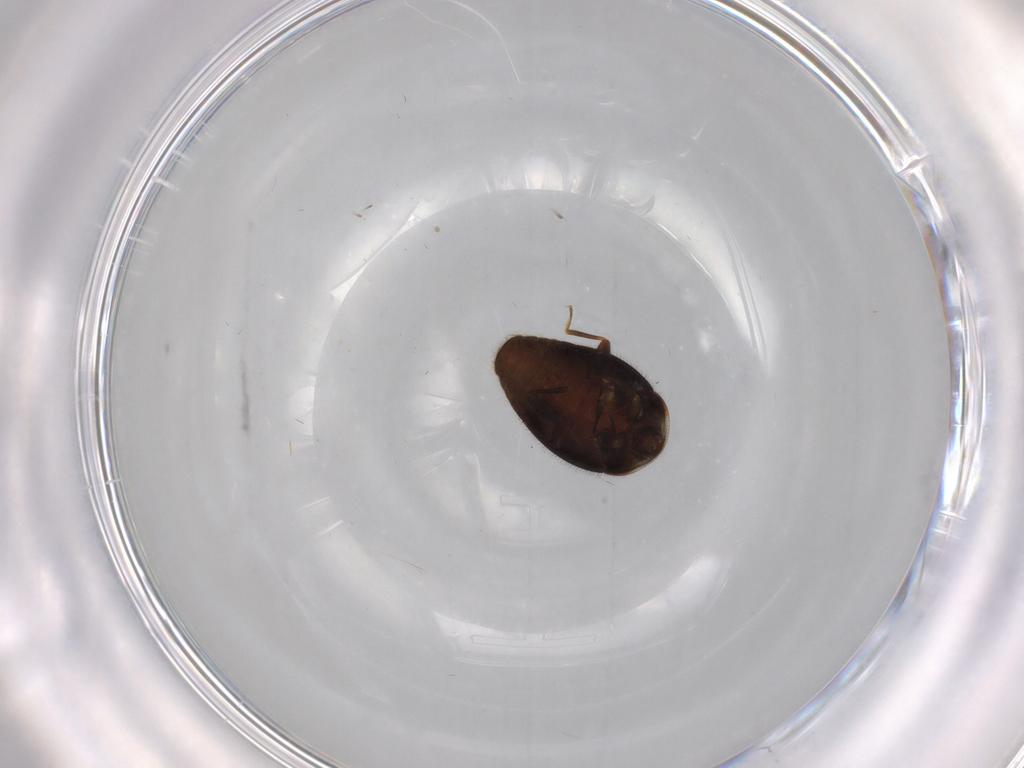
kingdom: Animalia
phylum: Arthropoda
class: Insecta
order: Coleoptera
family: Corylophidae
